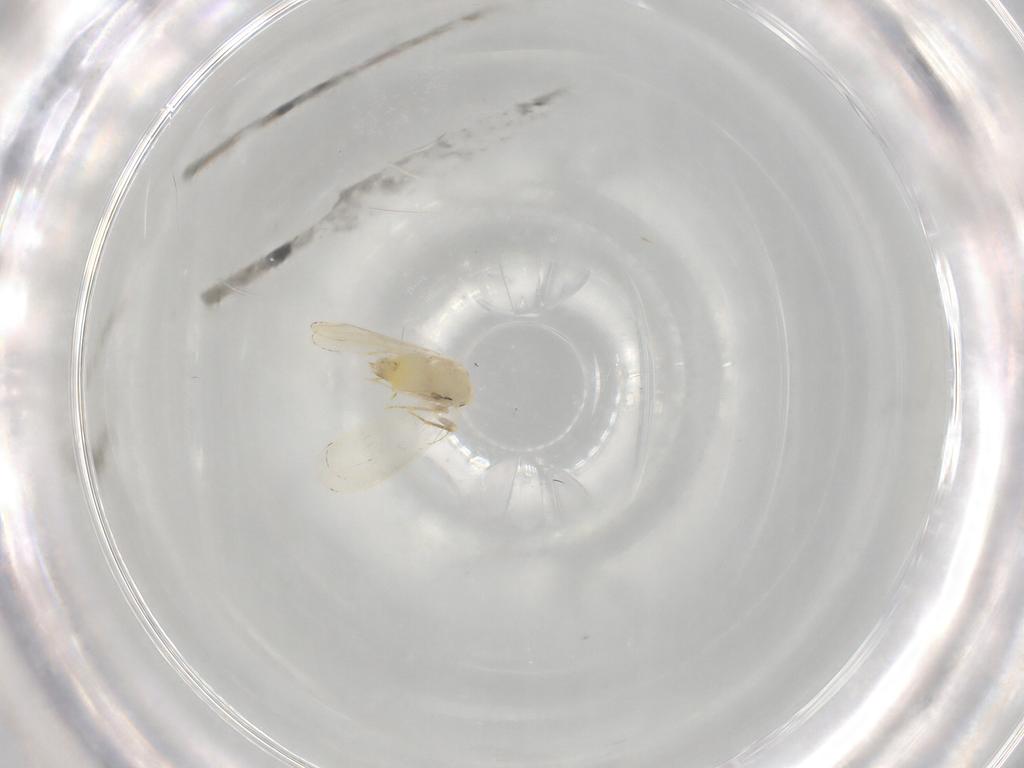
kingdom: Animalia
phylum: Arthropoda
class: Insecta
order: Diptera
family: Cecidomyiidae
